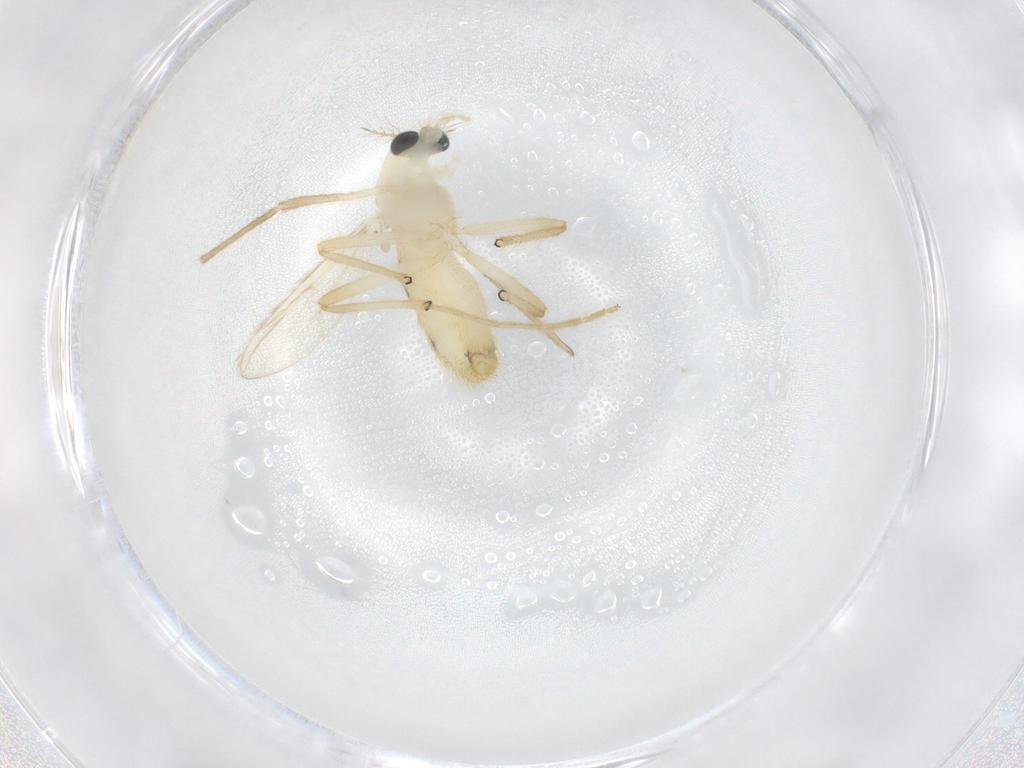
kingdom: Animalia
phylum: Arthropoda
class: Insecta
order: Diptera
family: Chironomidae
